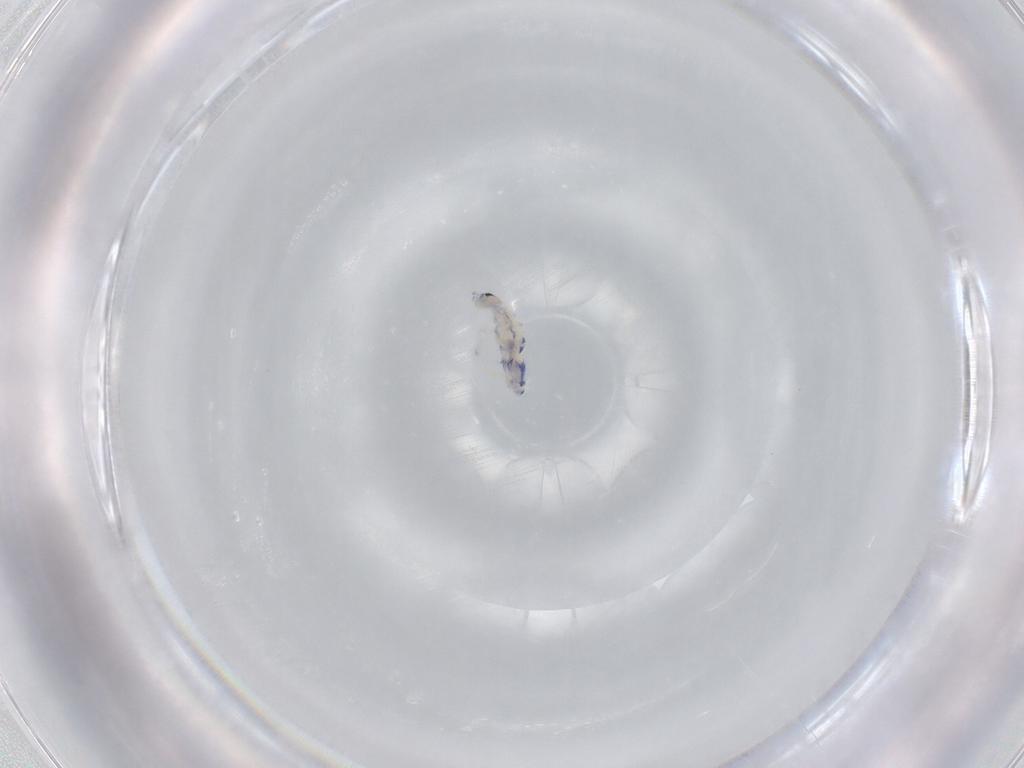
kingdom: Animalia
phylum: Arthropoda
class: Collembola
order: Entomobryomorpha
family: Entomobryidae
